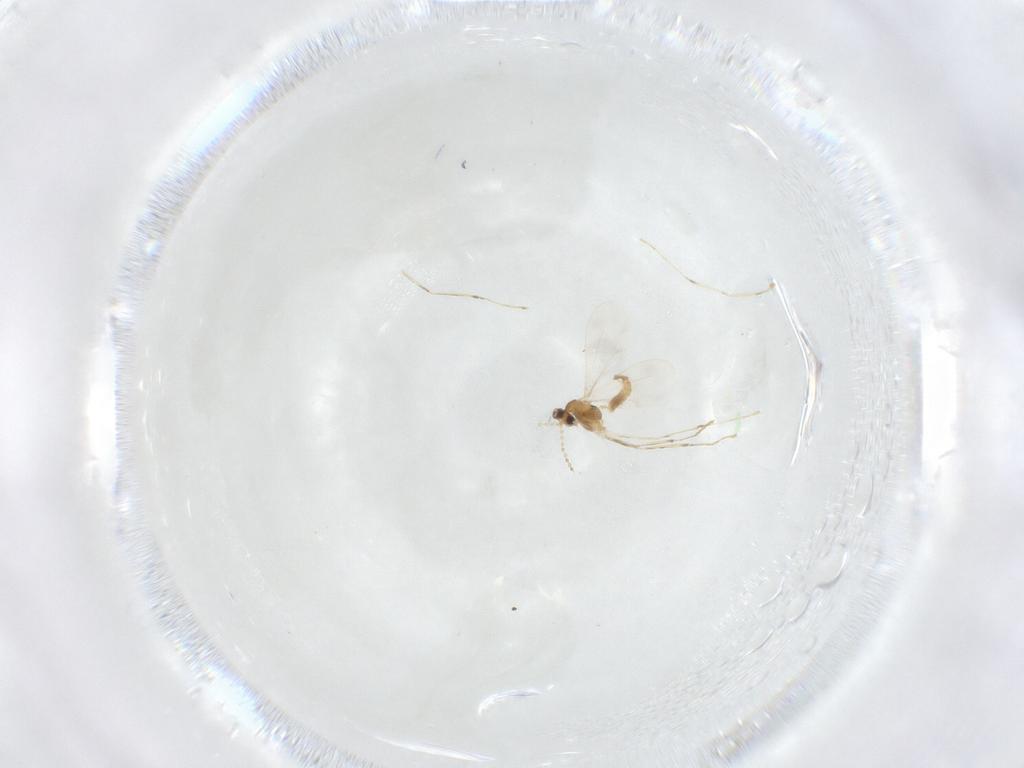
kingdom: Animalia
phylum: Arthropoda
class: Insecta
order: Diptera
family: Cecidomyiidae
